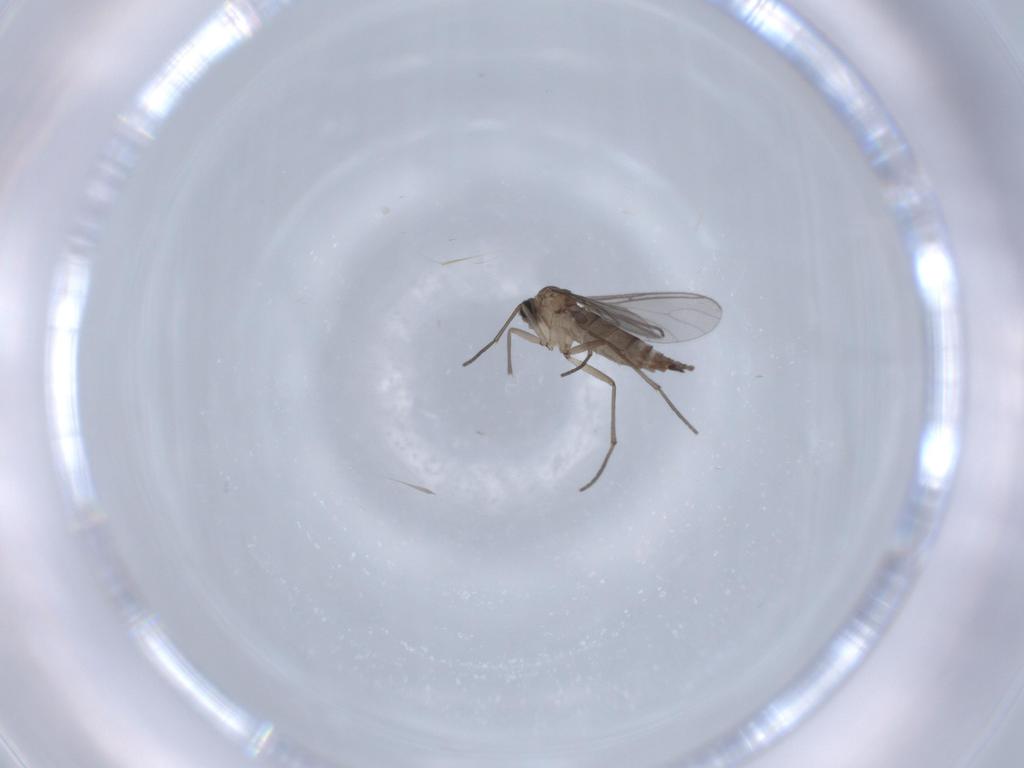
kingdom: Animalia
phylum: Arthropoda
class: Insecta
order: Diptera
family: Sciaridae
